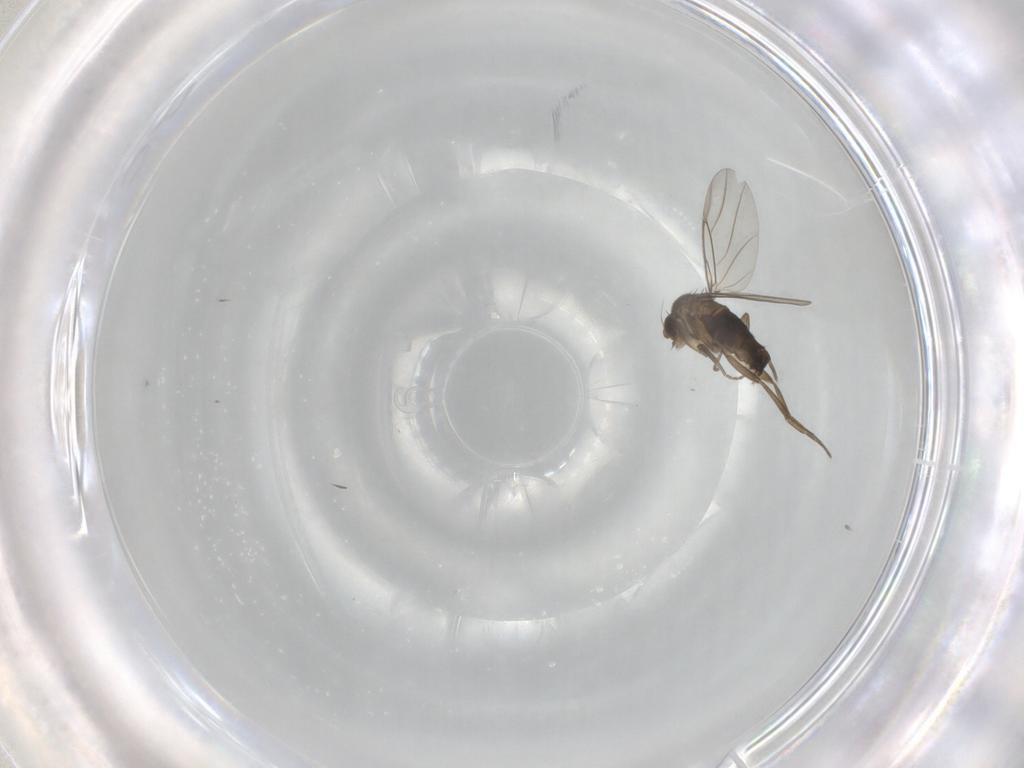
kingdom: Animalia
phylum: Arthropoda
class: Insecta
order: Diptera
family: Phoridae
